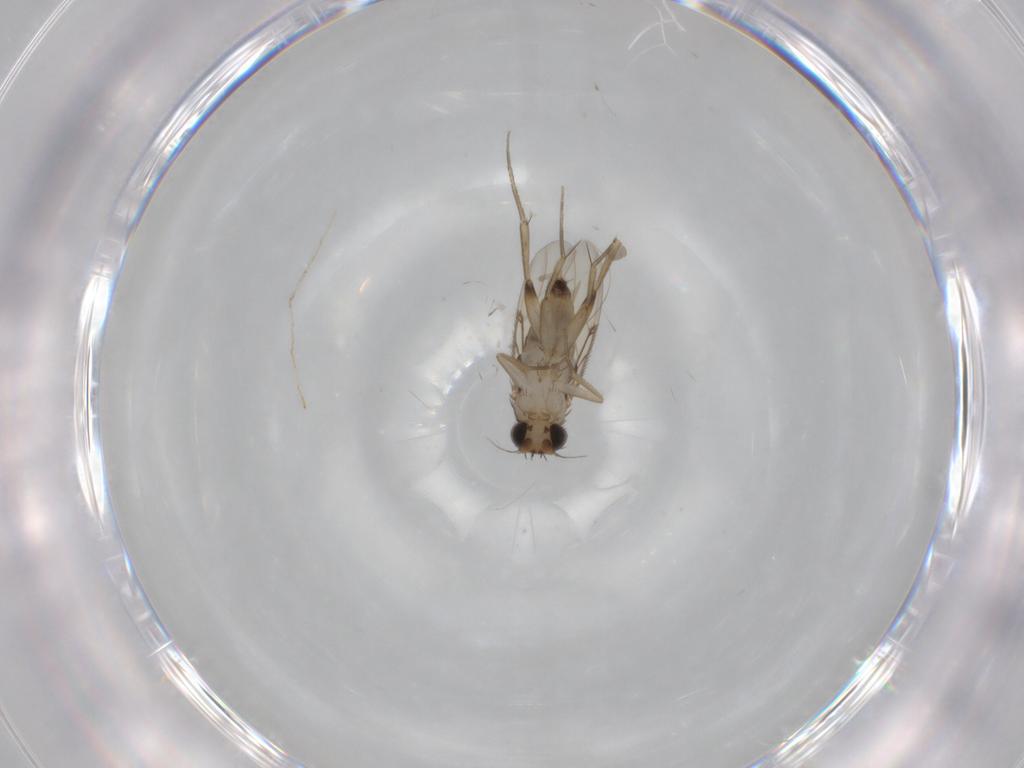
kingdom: Animalia
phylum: Arthropoda
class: Insecta
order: Diptera
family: Phoridae
